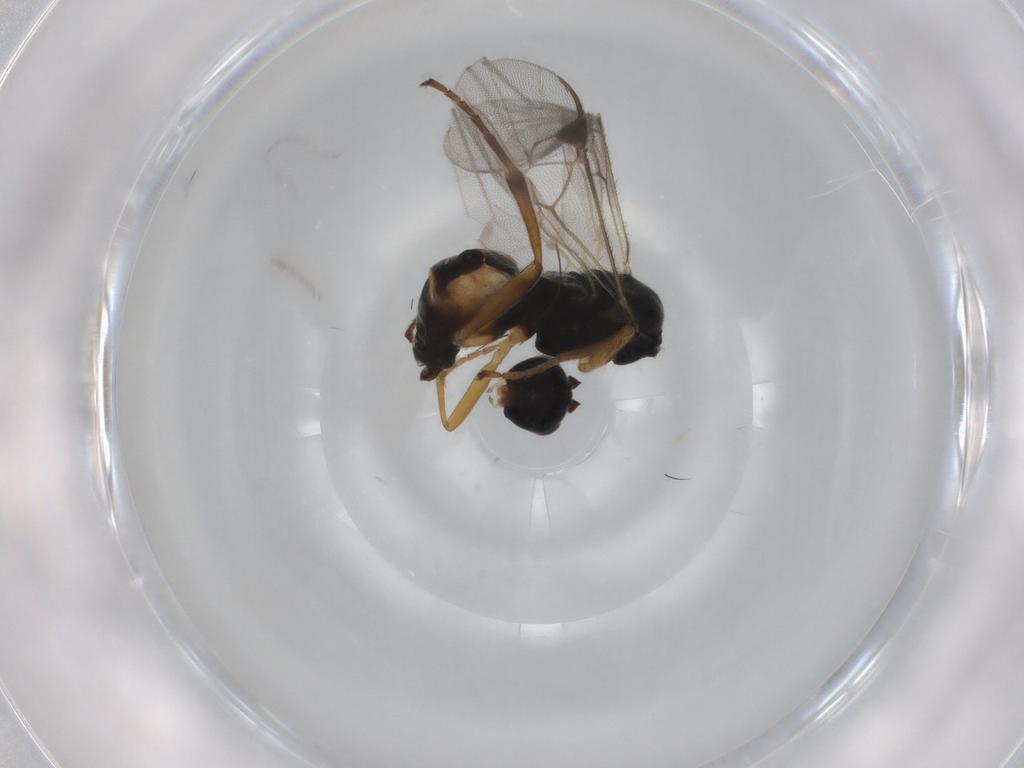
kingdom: Animalia
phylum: Arthropoda
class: Insecta
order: Hymenoptera
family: Braconidae
